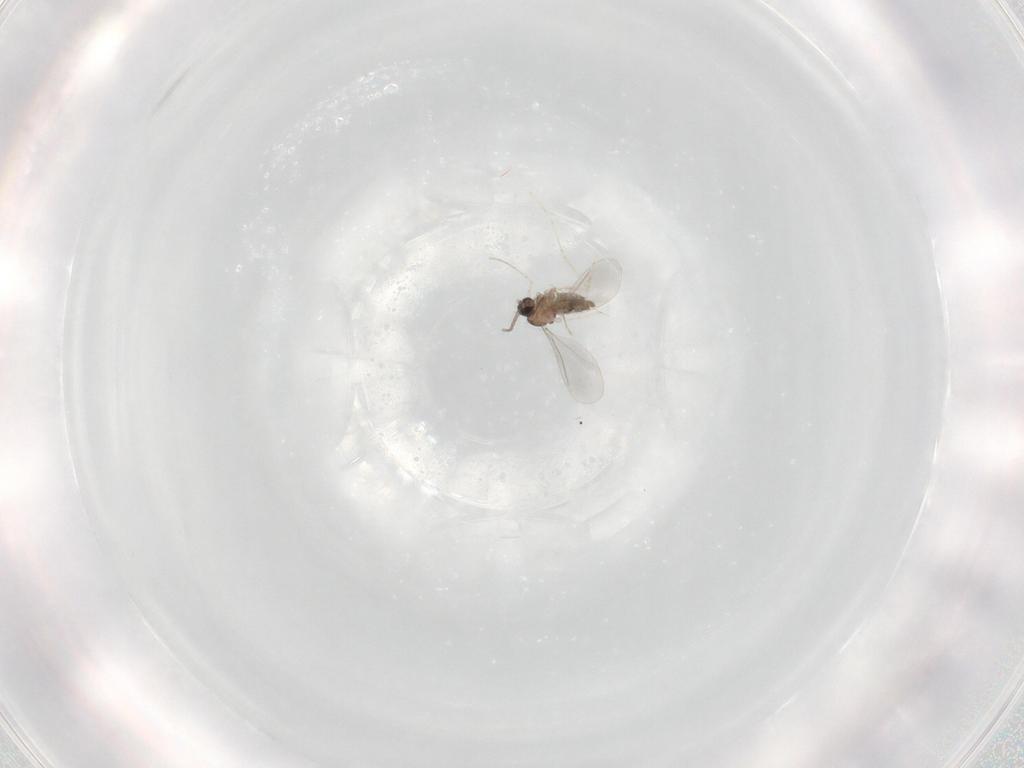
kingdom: Animalia
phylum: Arthropoda
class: Insecta
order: Diptera
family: Cecidomyiidae
